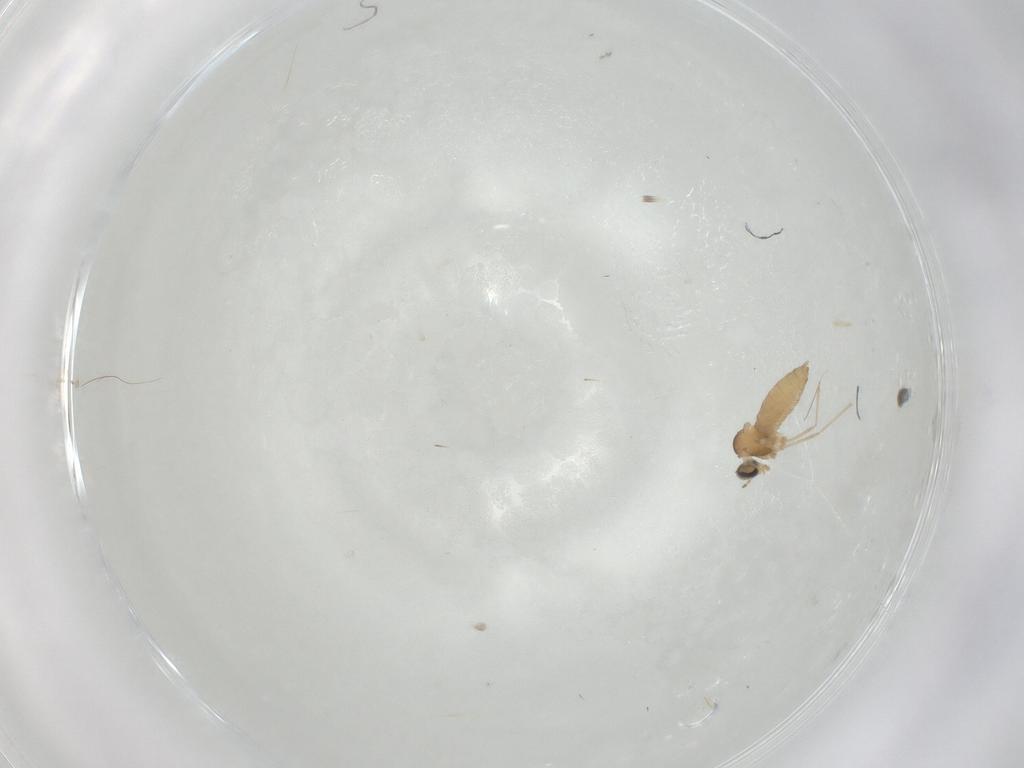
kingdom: Animalia
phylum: Arthropoda
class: Insecta
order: Diptera
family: Cecidomyiidae
